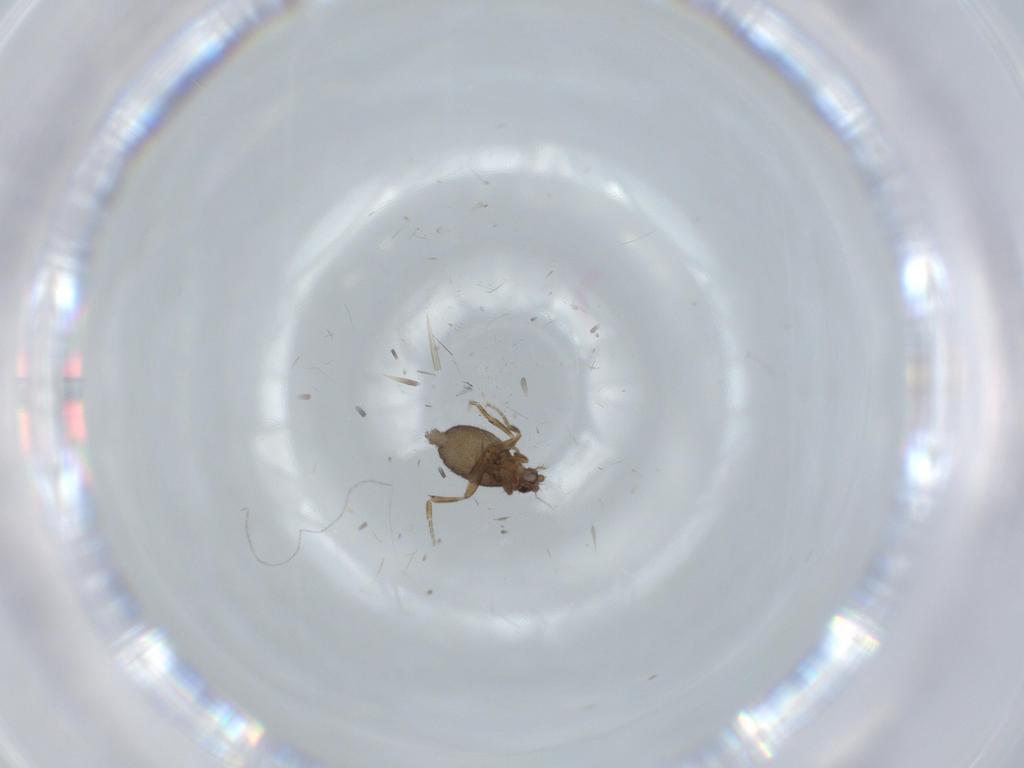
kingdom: Animalia
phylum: Arthropoda
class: Insecta
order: Diptera
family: Phoridae
